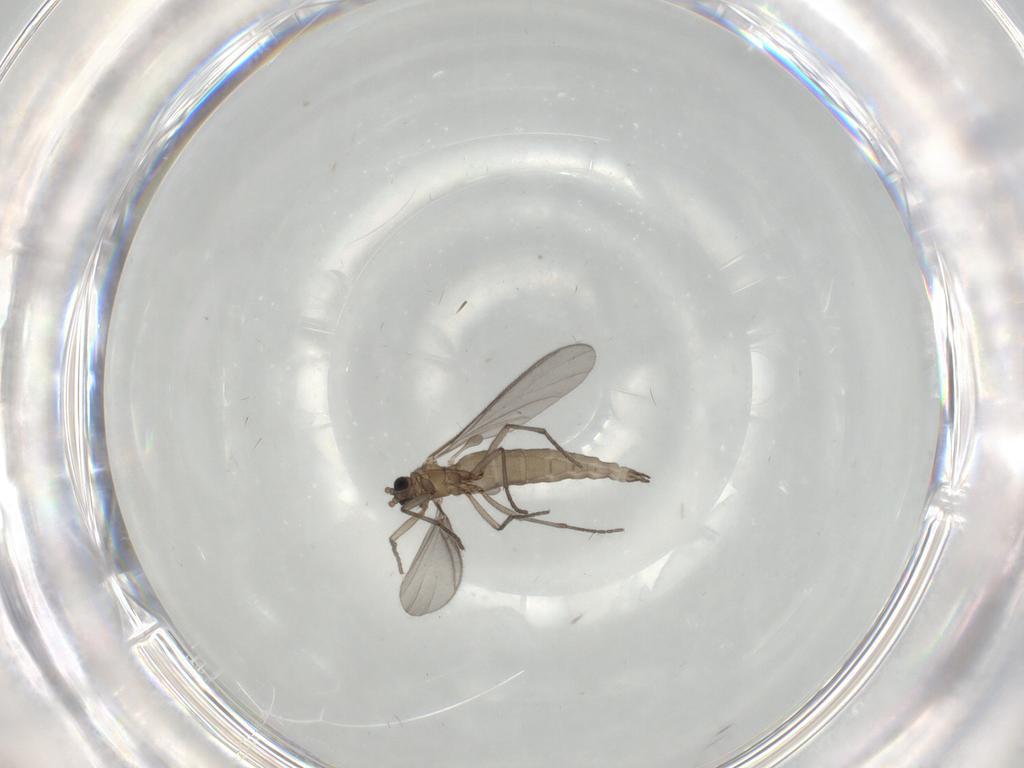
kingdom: Animalia
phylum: Arthropoda
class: Insecta
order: Diptera
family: Sciaridae
